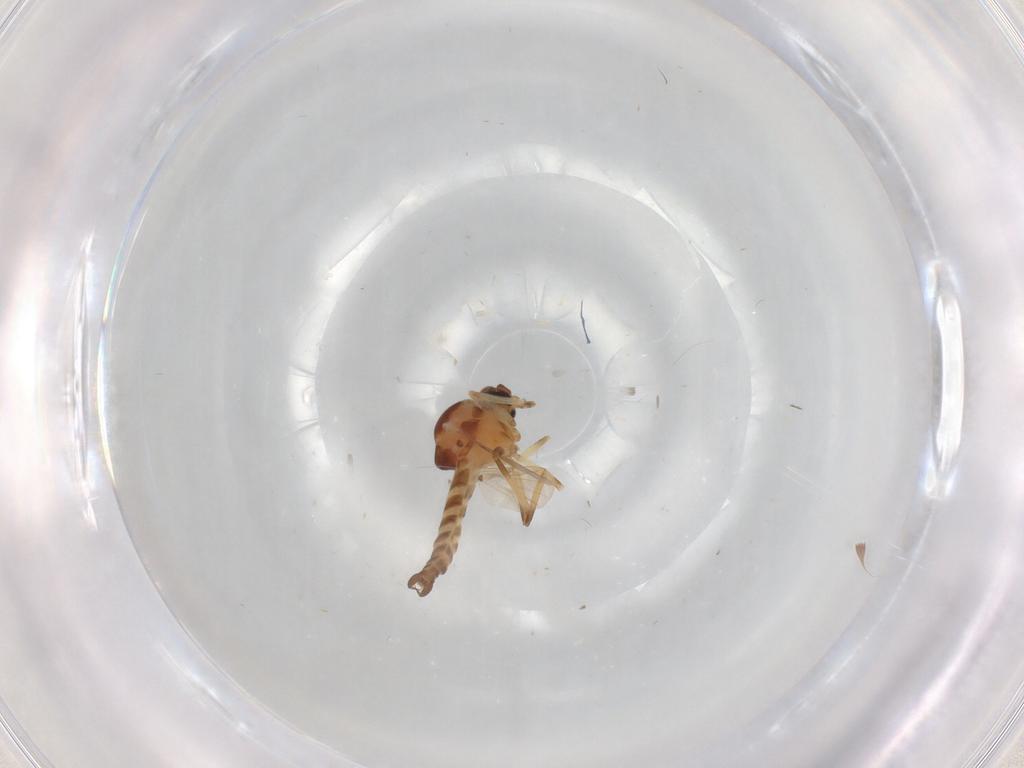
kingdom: Animalia
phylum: Arthropoda
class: Insecta
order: Diptera
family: Ceratopogonidae
